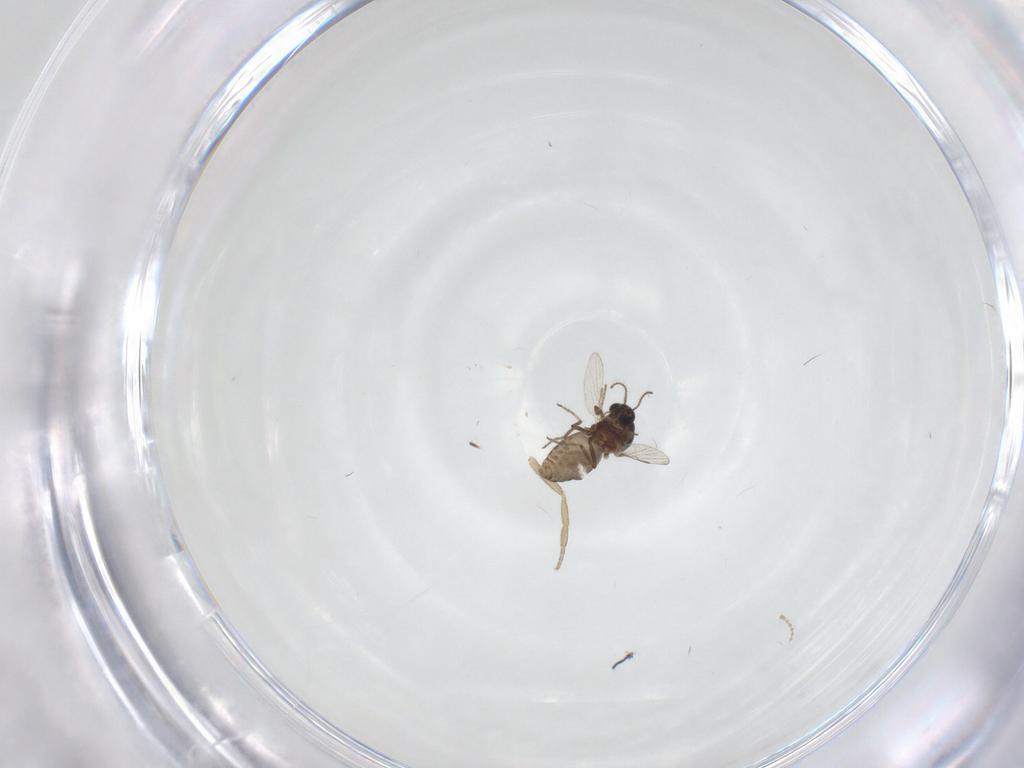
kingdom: Animalia
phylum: Arthropoda
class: Insecta
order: Diptera
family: Ceratopogonidae
